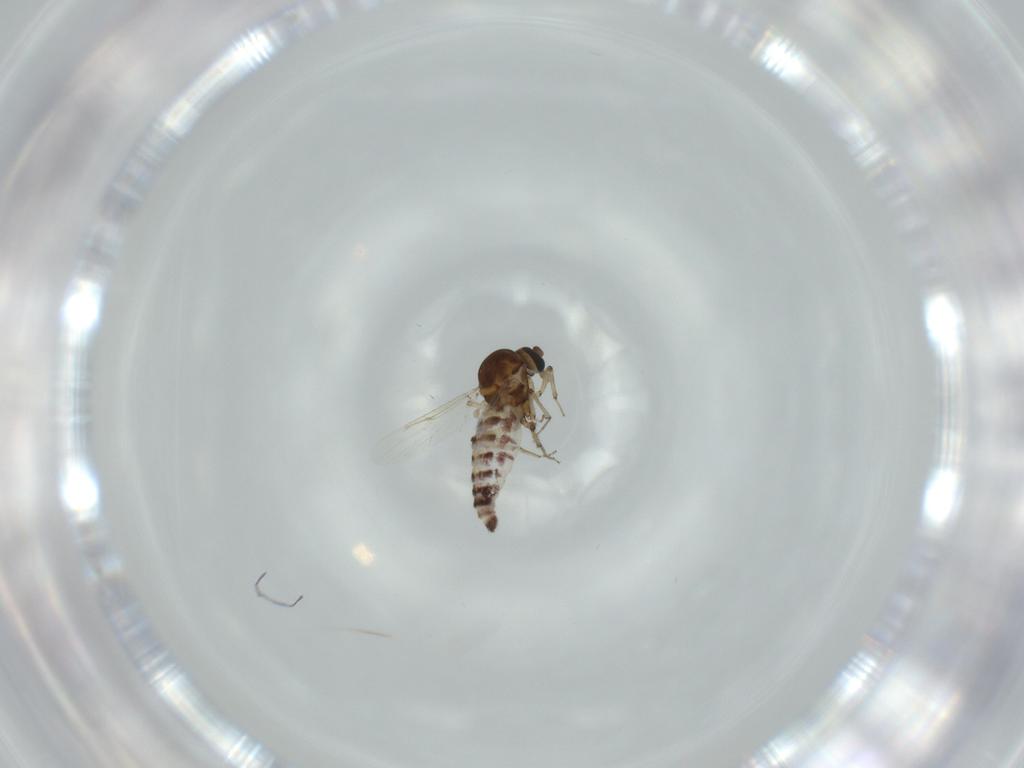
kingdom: Animalia
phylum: Arthropoda
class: Insecta
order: Diptera
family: Ceratopogonidae
